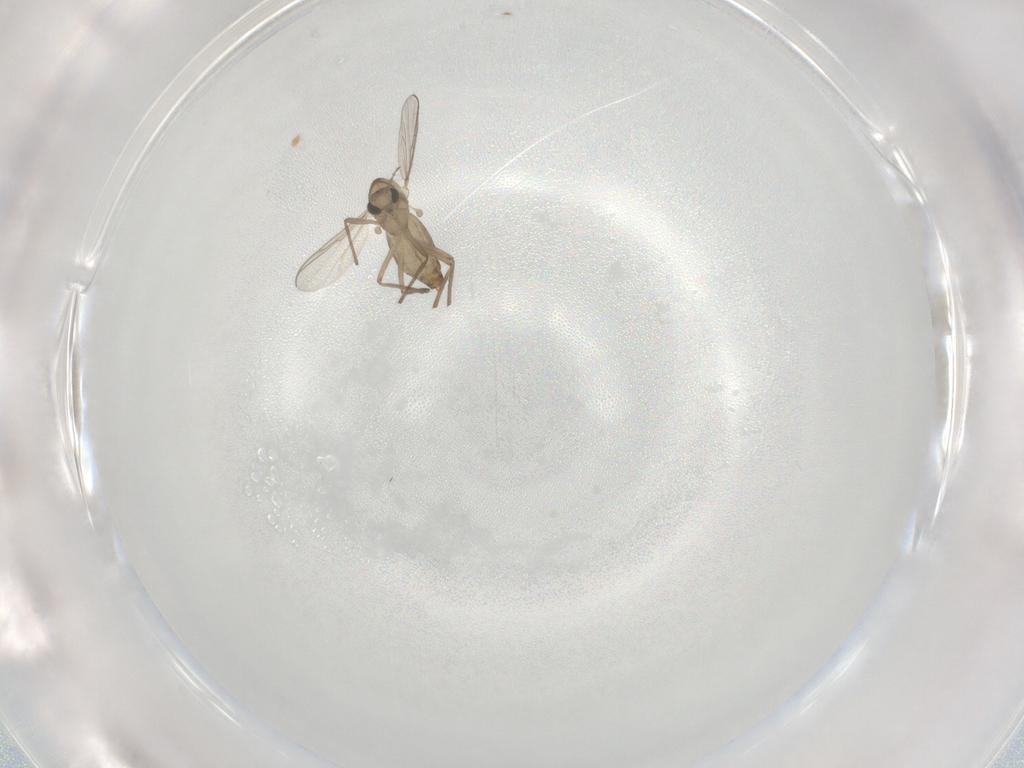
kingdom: Animalia
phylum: Arthropoda
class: Insecta
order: Diptera
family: Chironomidae
